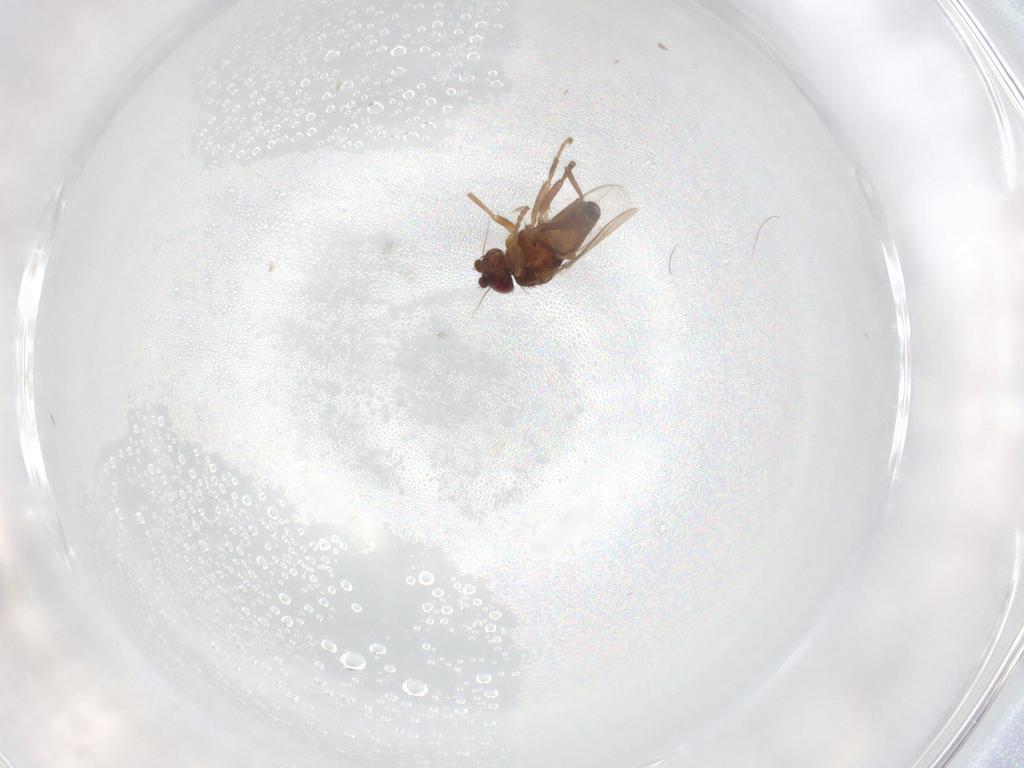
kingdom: Animalia
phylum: Arthropoda
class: Insecta
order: Diptera
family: Sphaeroceridae
